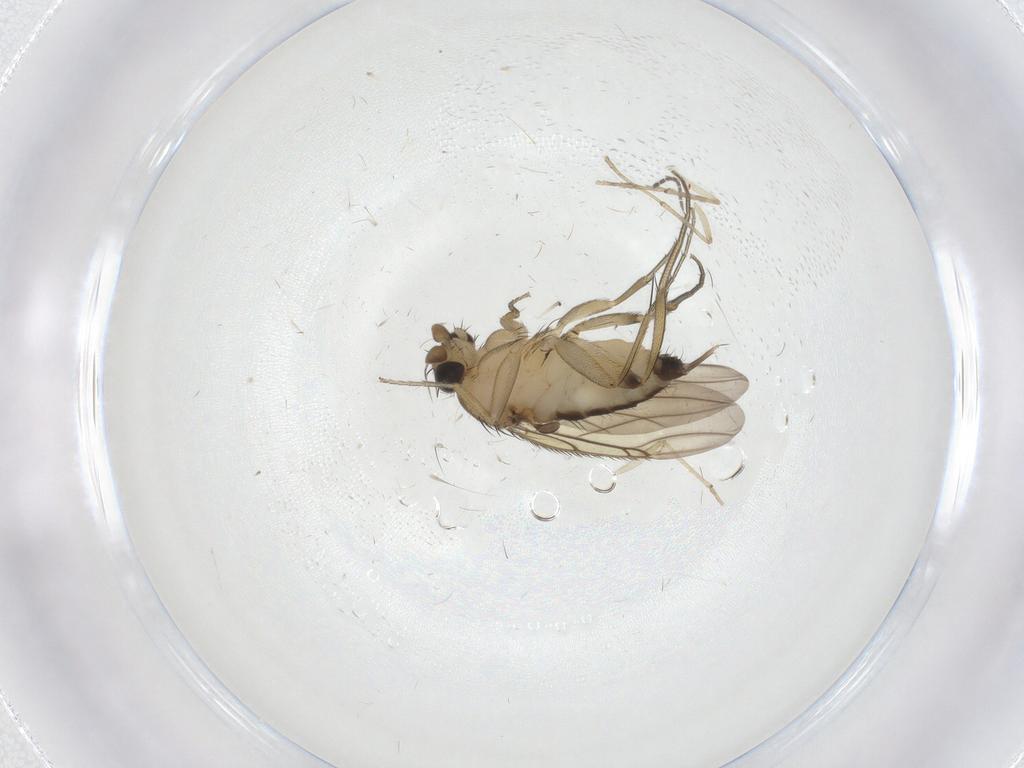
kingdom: Animalia
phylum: Arthropoda
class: Insecta
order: Diptera
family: Phoridae
